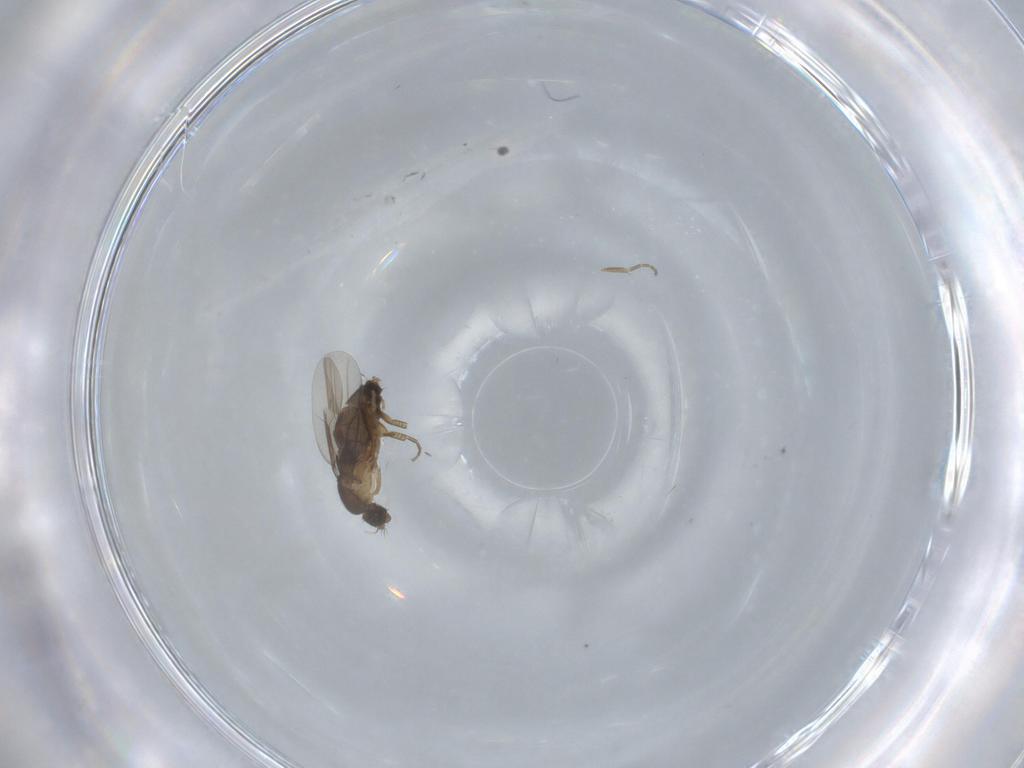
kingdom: Animalia
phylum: Arthropoda
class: Insecta
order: Diptera
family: Phoridae
